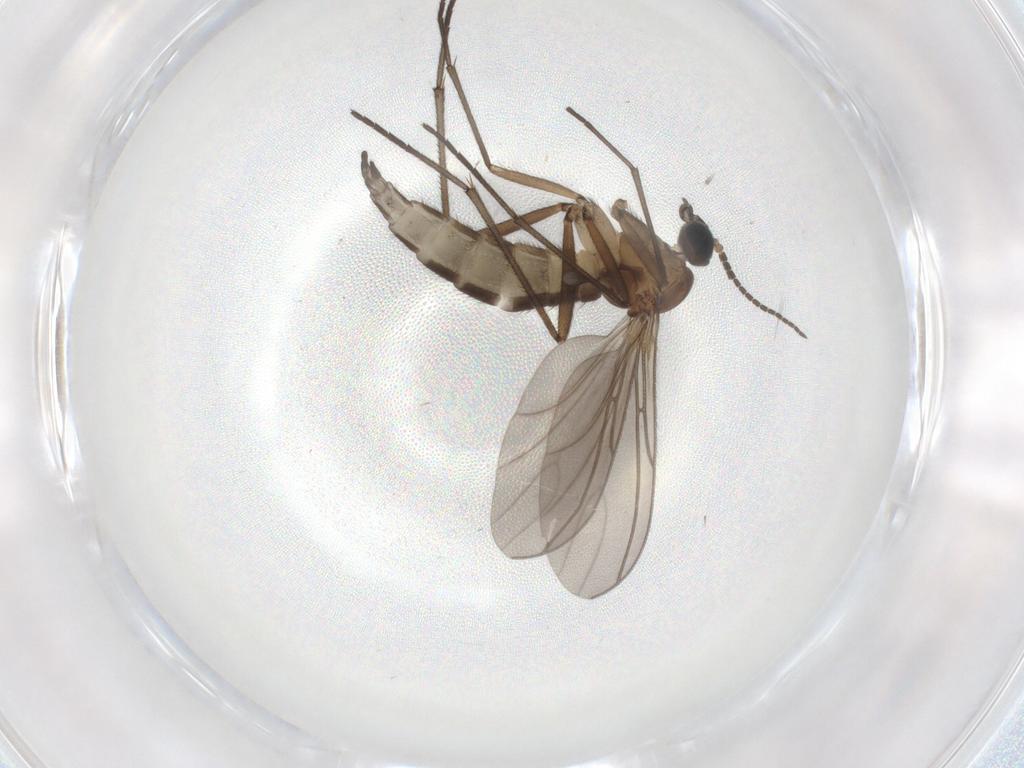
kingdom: Animalia
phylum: Arthropoda
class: Insecta
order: Diptera
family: Sciaridae
